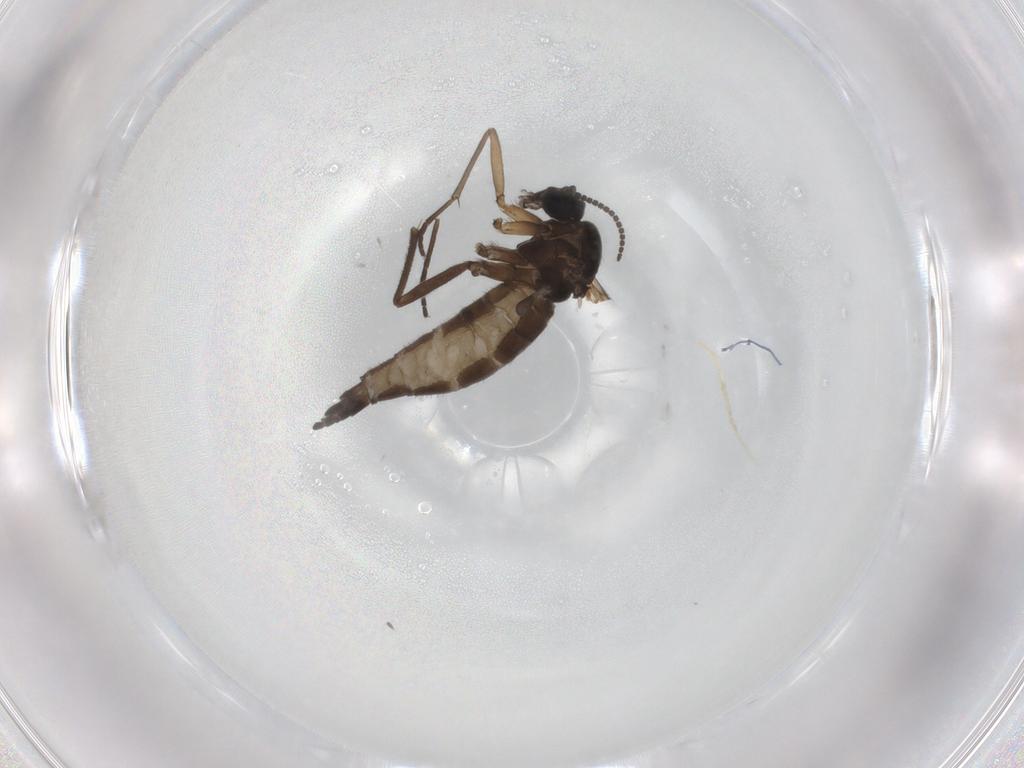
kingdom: Animalia
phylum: Arthropoda
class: Insecta
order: Diptera
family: Sciaridae
